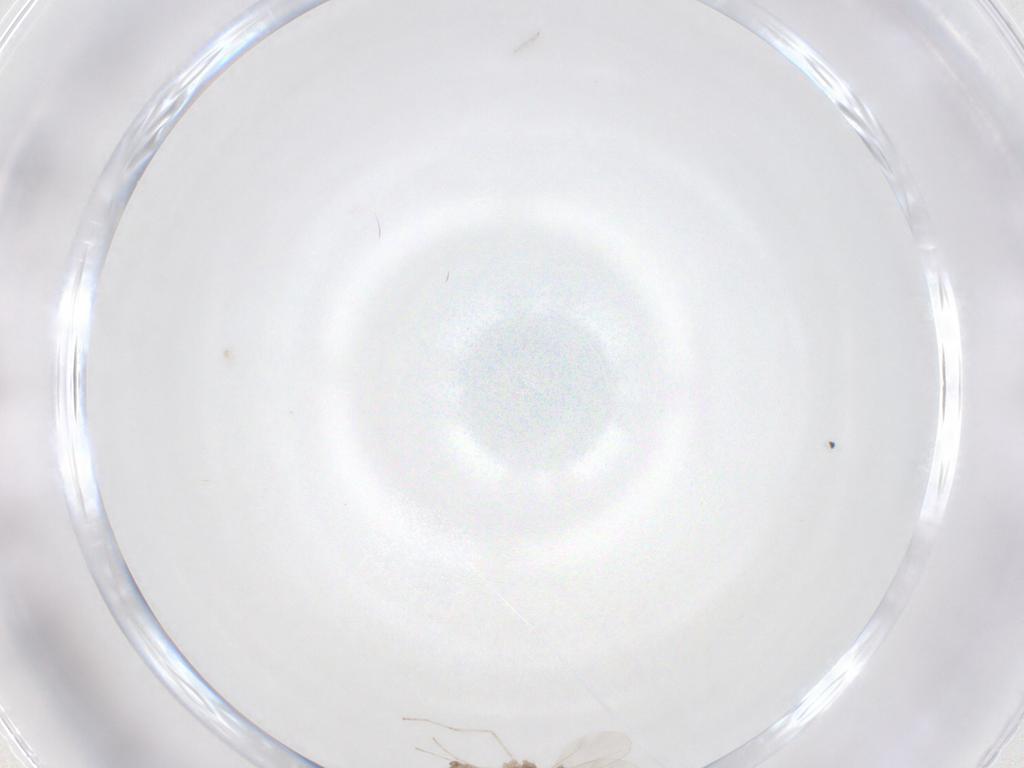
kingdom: Animalia
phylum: Arthropoda
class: Insecta
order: Diptera
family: Cecidomyiidae
